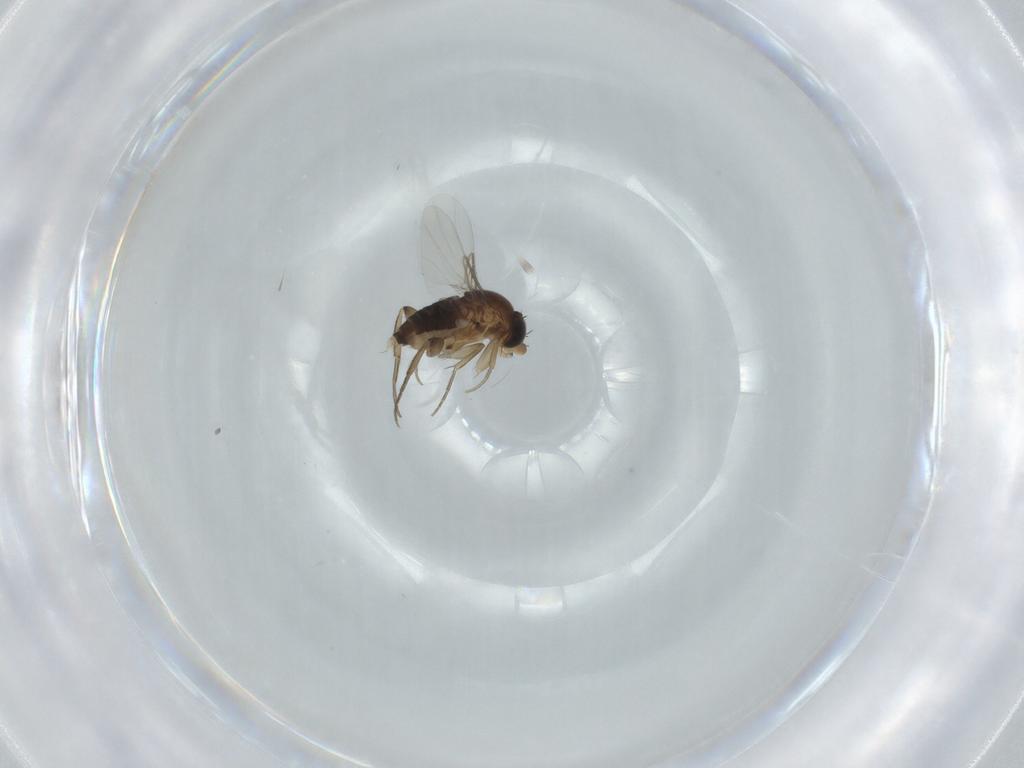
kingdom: Animalia
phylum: Arthropoda
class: Insecta
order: Diptera
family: Phoridae
